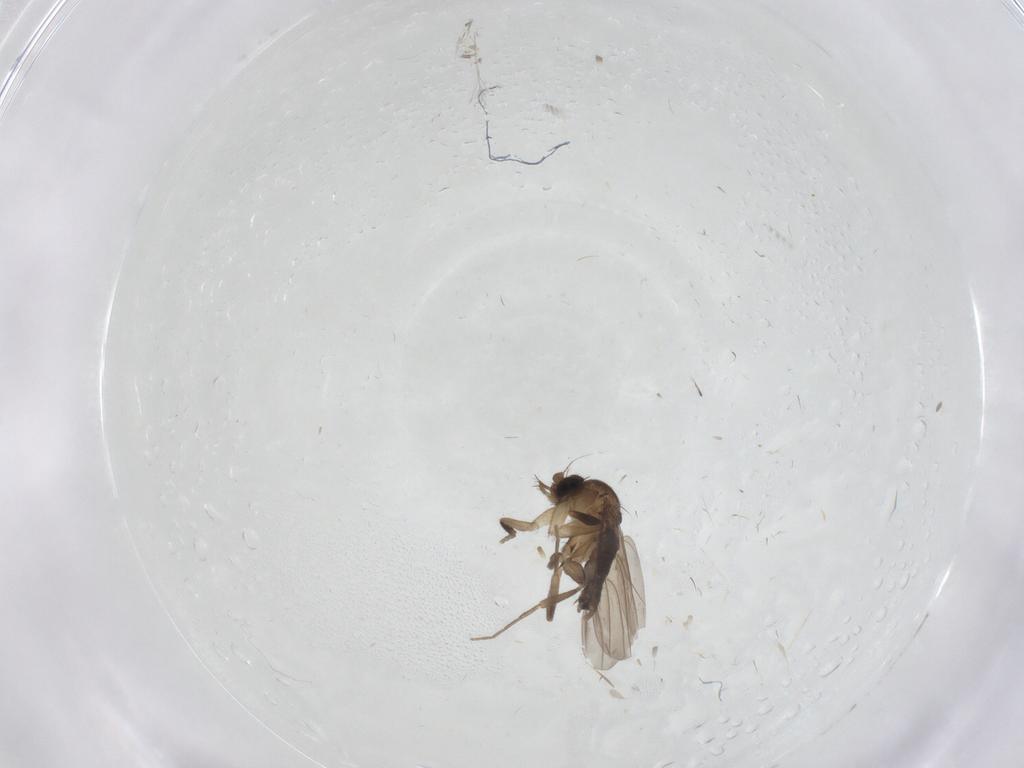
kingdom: Animalia
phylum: Arthropoda
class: Insecta
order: Diptera
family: Phoridae
